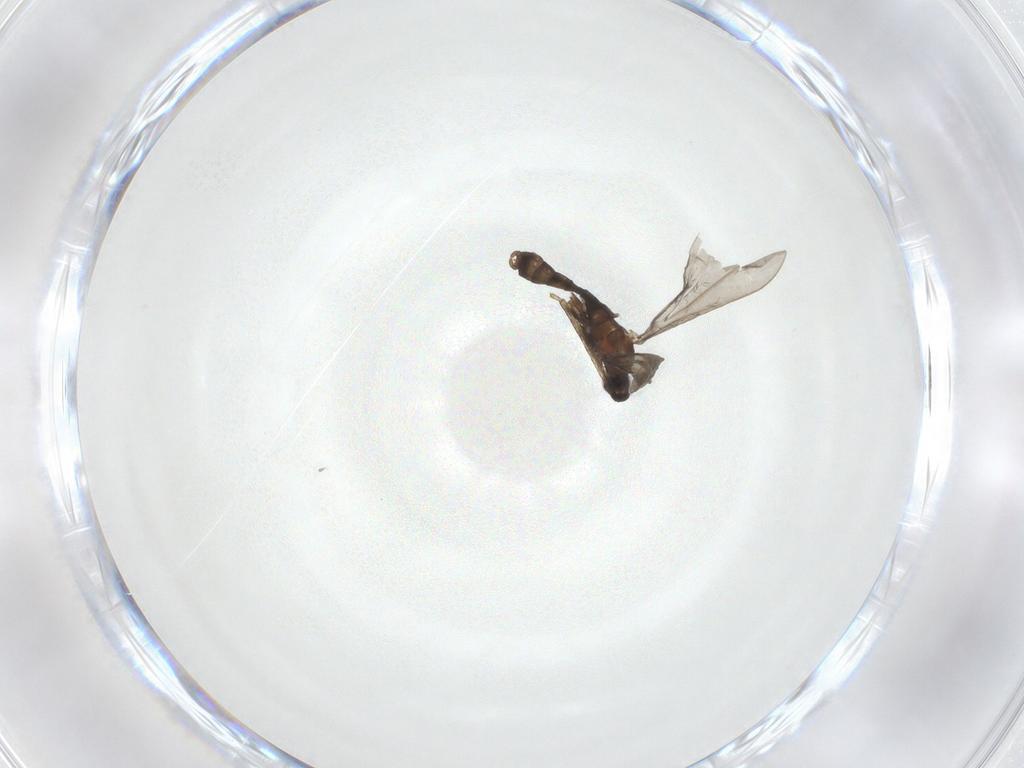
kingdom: Animalia
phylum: Arthropoda
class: Insecta
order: Diptera
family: Cecidomyiidae
